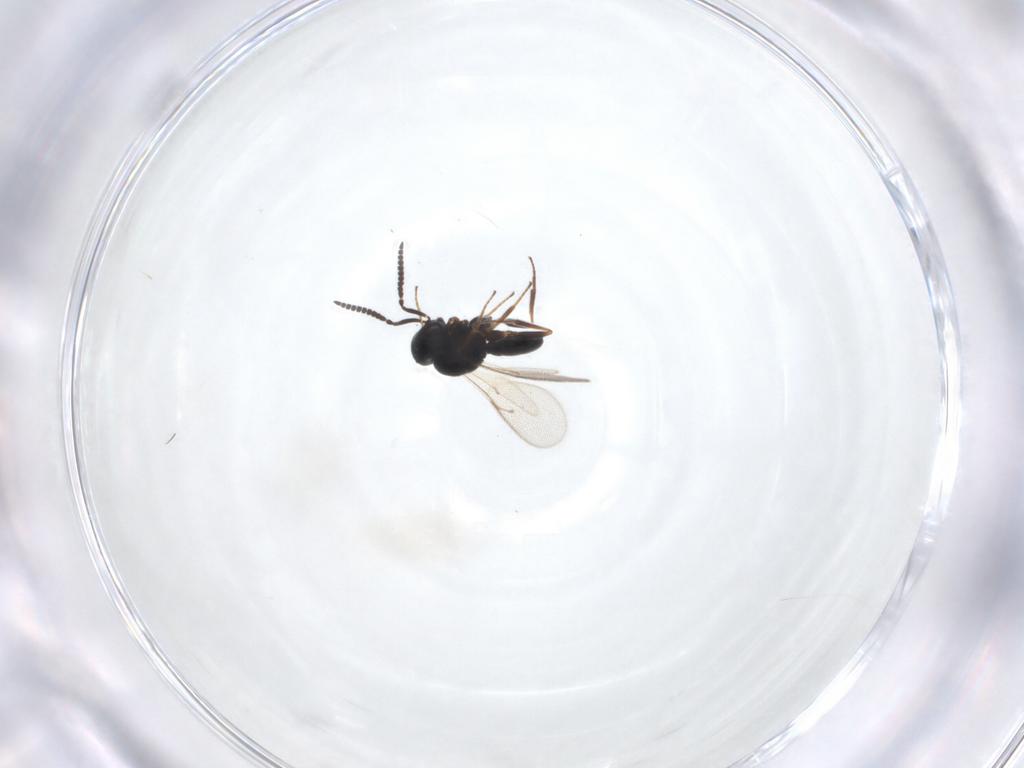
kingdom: Animalia
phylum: Arthropoda
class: Insecta
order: Hymenoptera
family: Scelionidae
